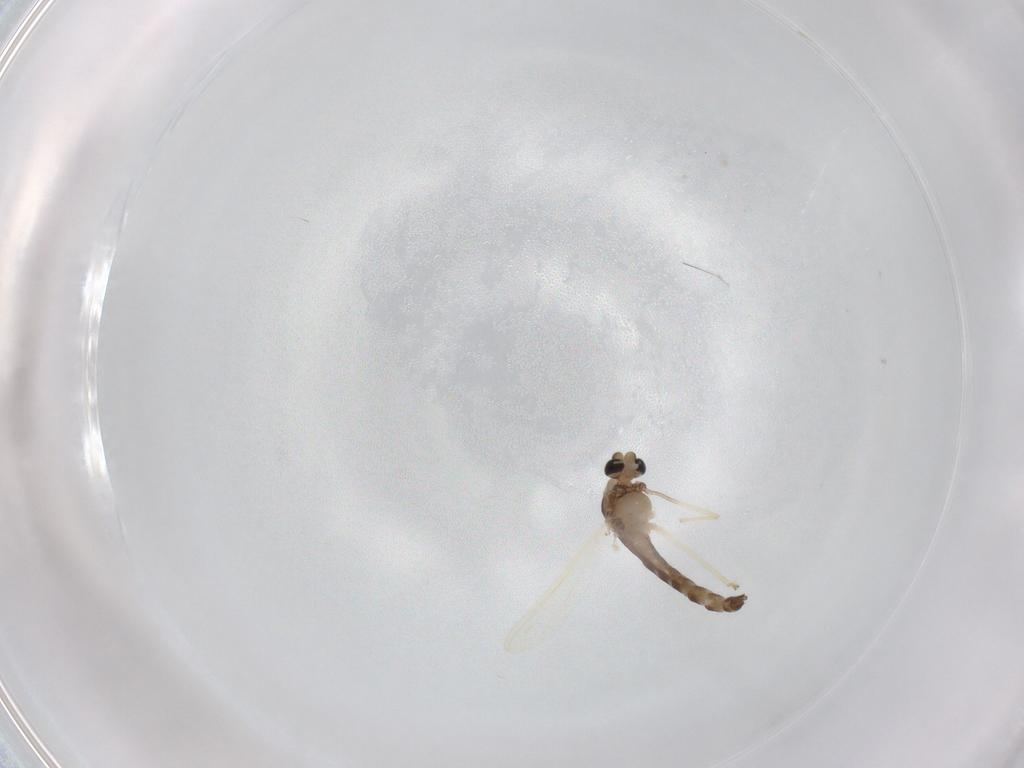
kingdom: Animalia
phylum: Arthropoda
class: Insecta
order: Diptera
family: Chironomidae
